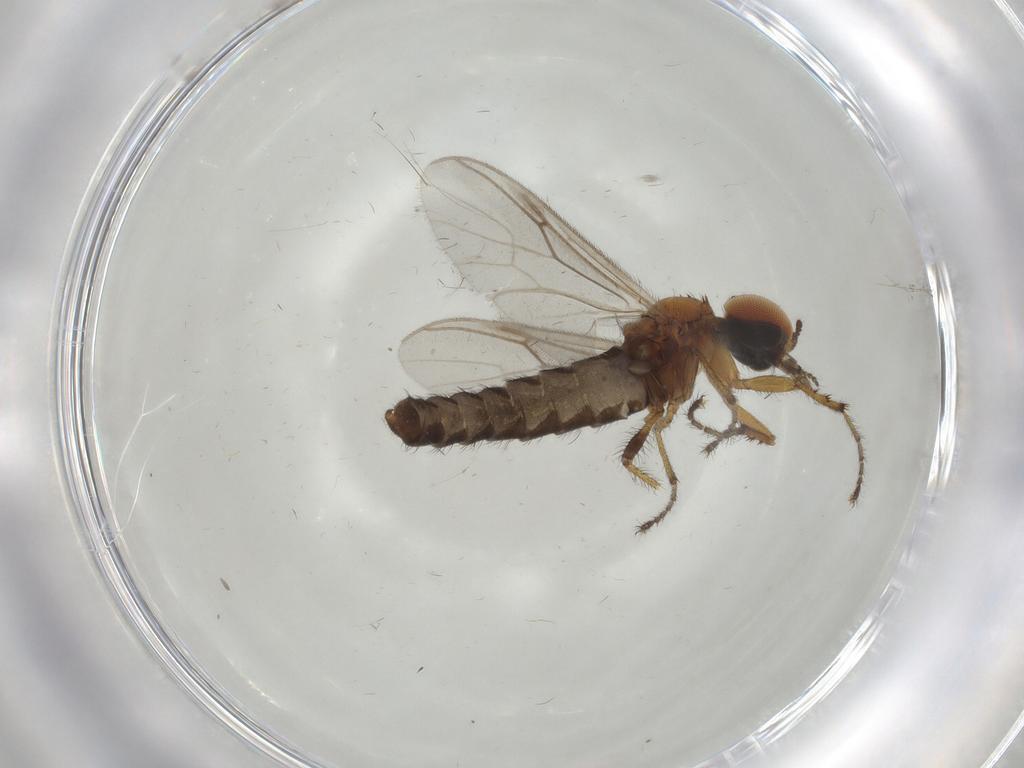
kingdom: Animalia
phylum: Arthropoda
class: Insecta
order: Diptera
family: Bibionidae
